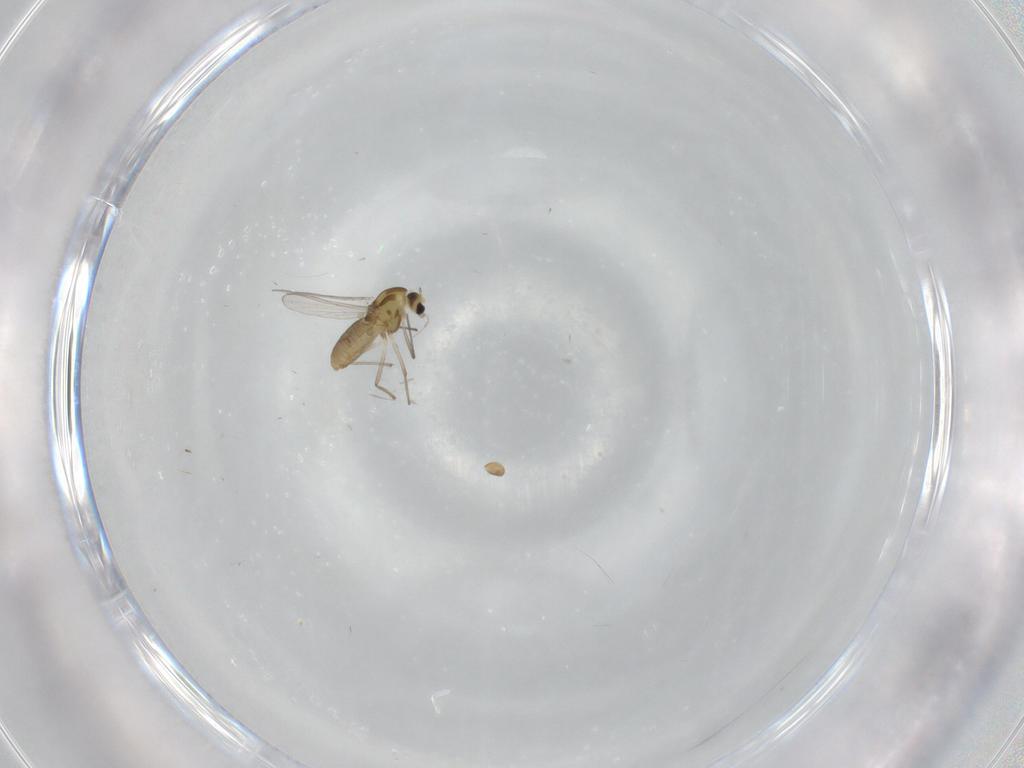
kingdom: Animalia
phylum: Arthropoda
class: Insecta
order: Diptera
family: Chironomidae
